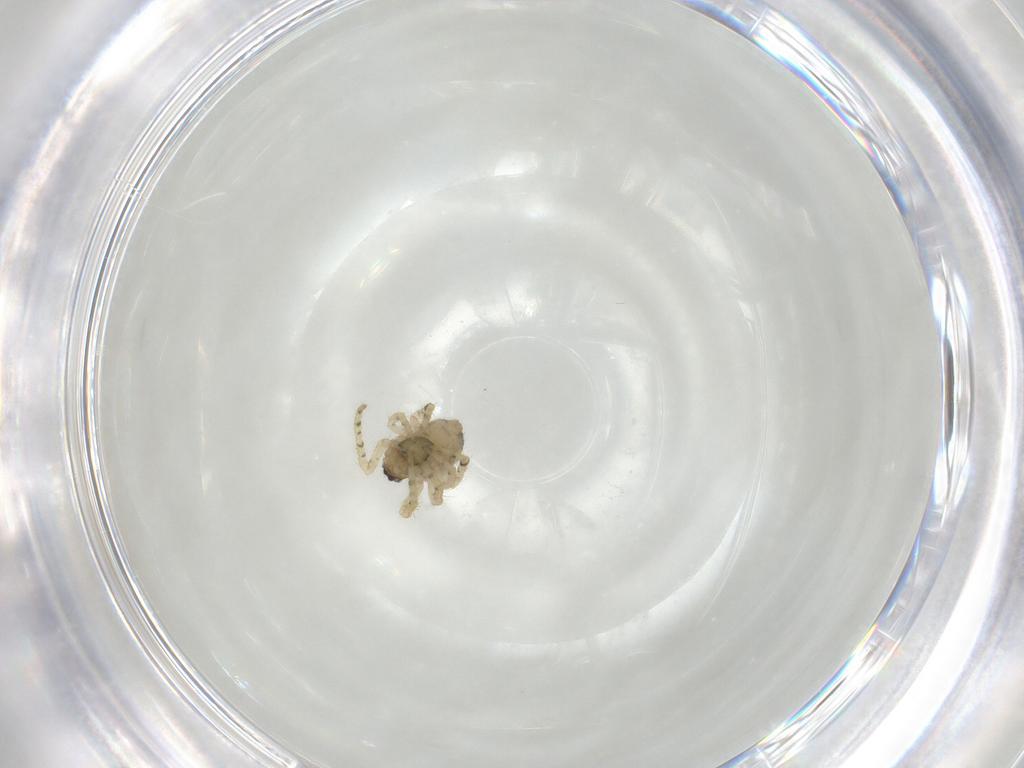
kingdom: Animalia
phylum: Arthropoda
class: Arachnida
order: Araneae
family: Theridiidae
